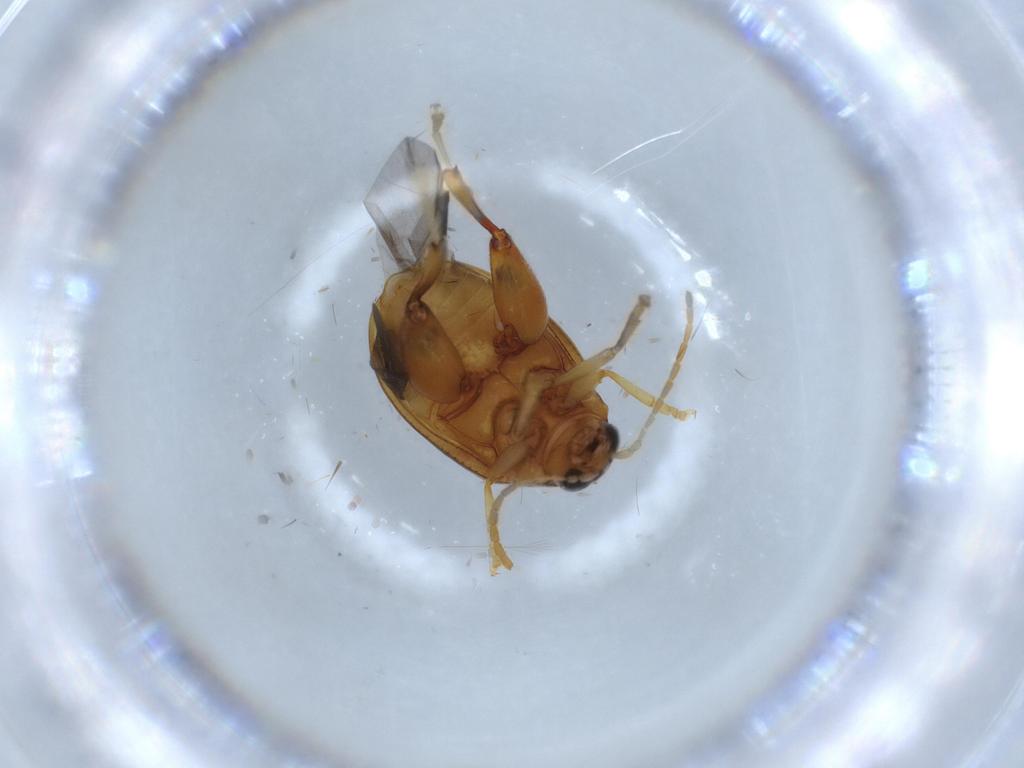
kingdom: Animalia
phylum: Arthropoda
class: Insecta
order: Coleoptera
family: Chrysomelidae
